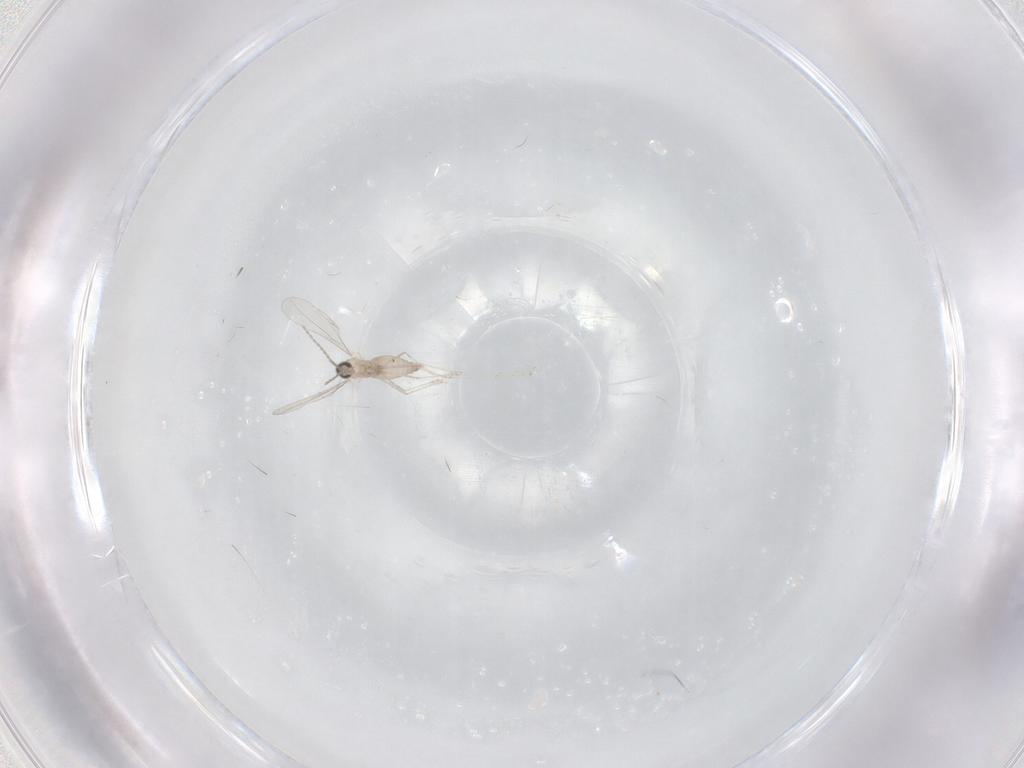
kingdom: Animalia
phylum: Arthropoda
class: Insecta
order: Diptera
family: Cecidomyiidae
